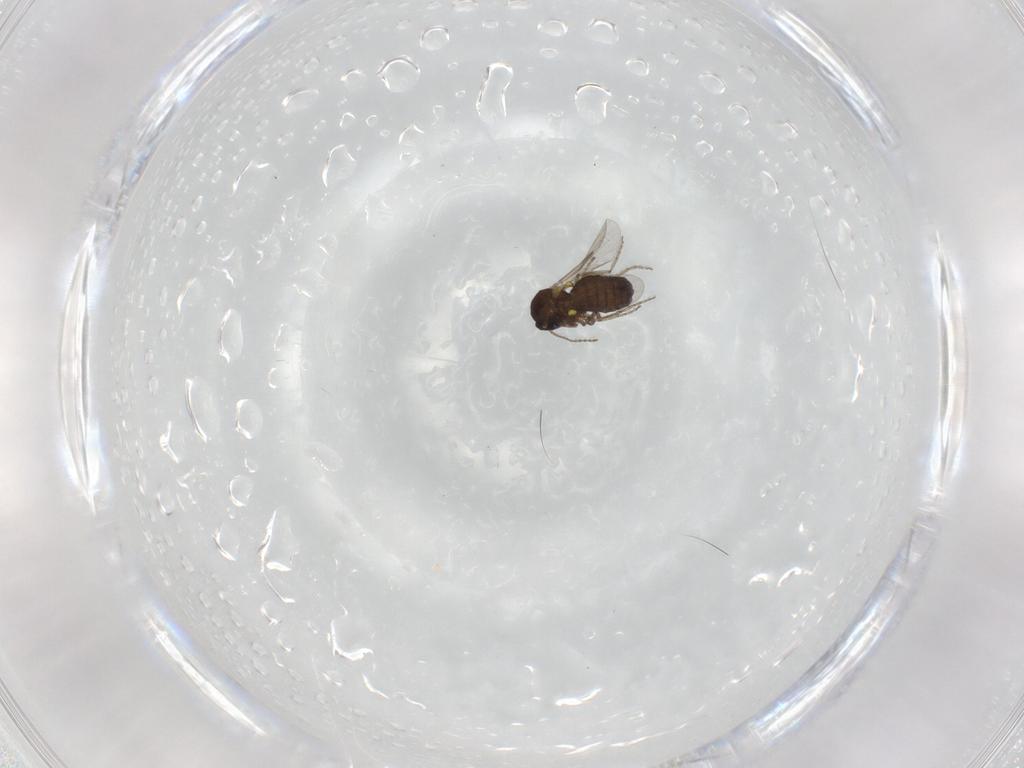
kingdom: Animalia
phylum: Arthropoda
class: Insecta
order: Diptera
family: Ceratopogonidae
